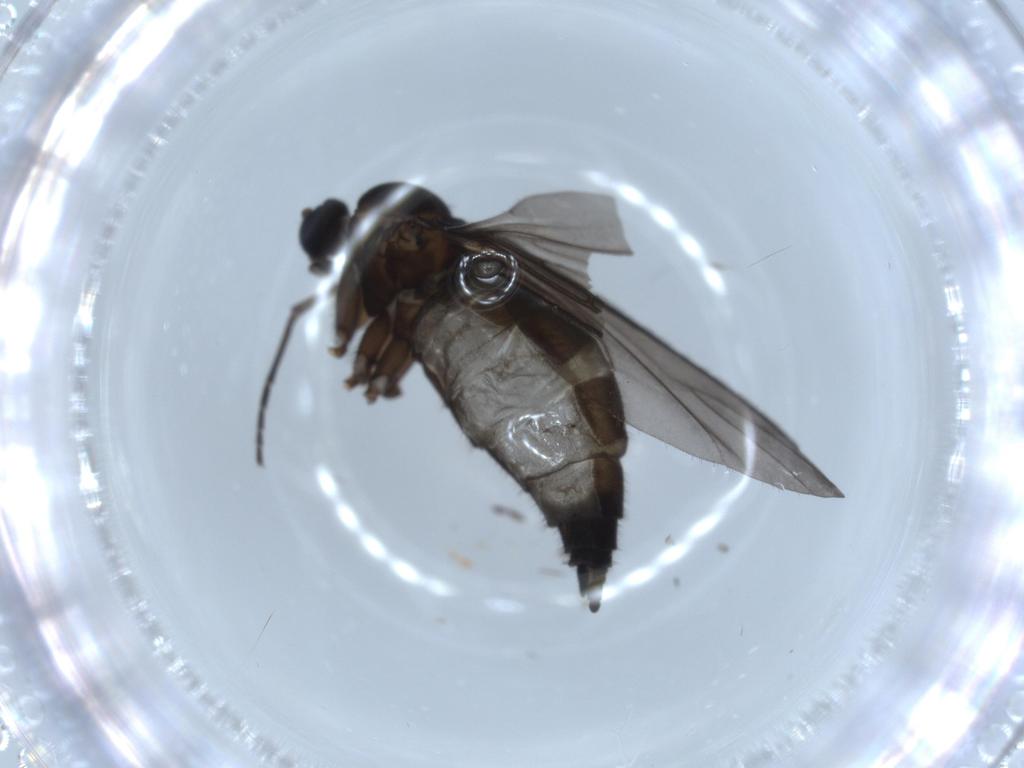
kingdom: Animalia
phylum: Arthropoda
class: Insecta
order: Diptera
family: Sciaridae
